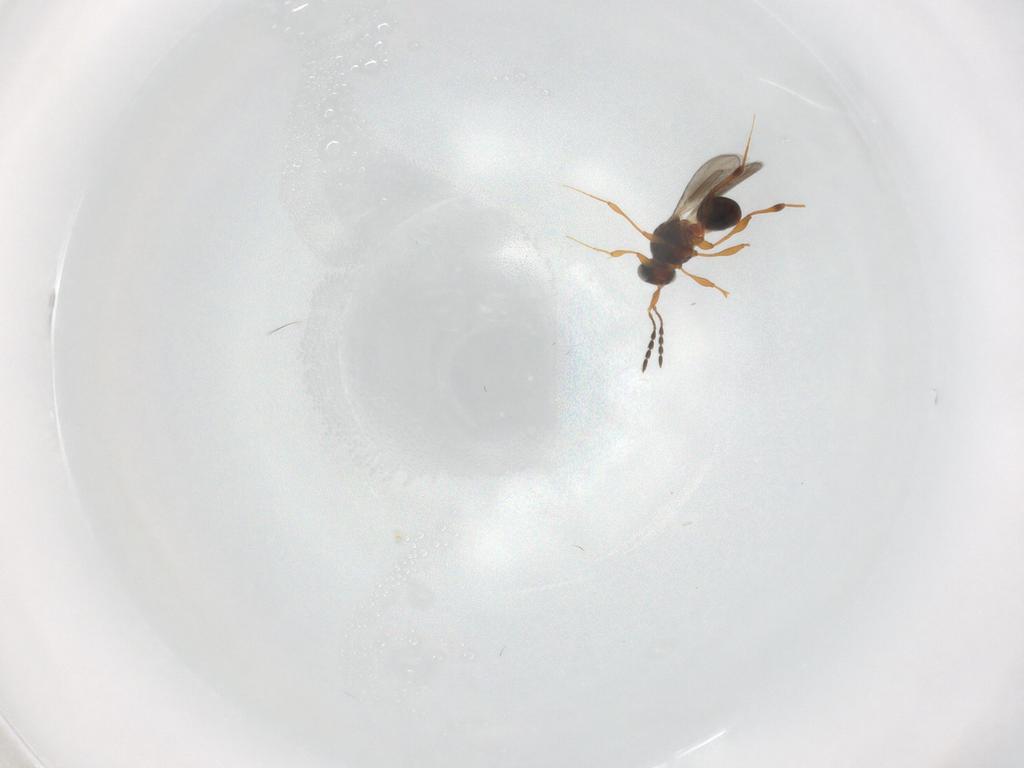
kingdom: Animalia
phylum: Arthropoda
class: Insecta
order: Hymenoptera
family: Platygastridae
